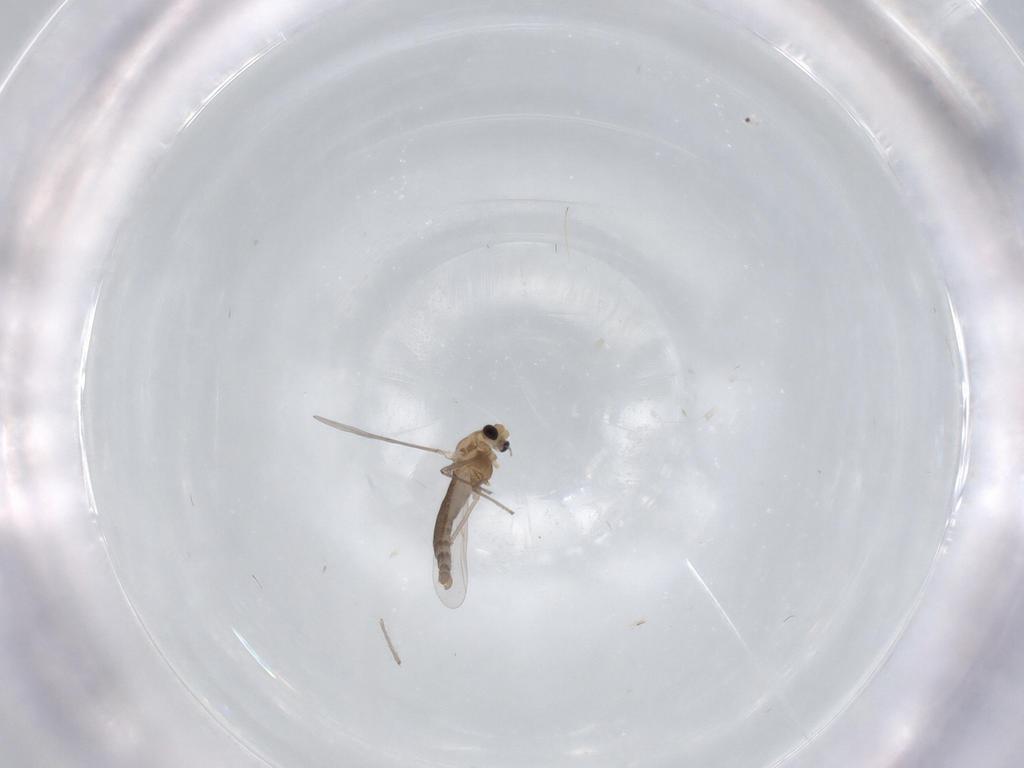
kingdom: Animalia
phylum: Arthropoda
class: Insecta
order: Diptera
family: Chironomidae
